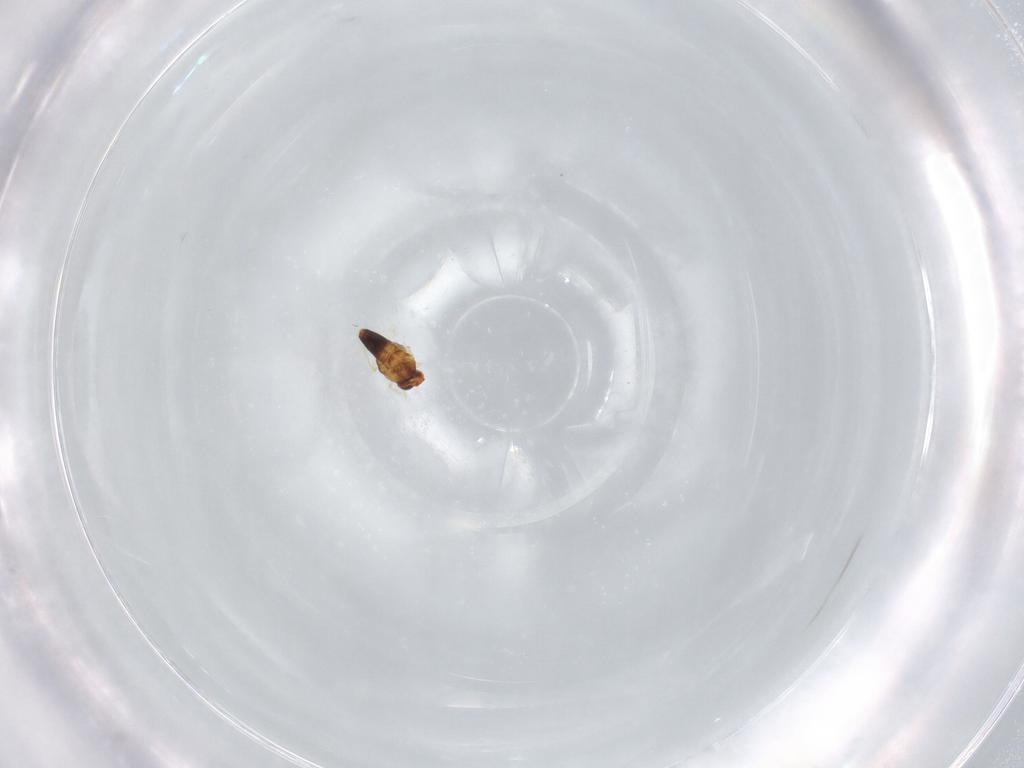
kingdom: Animalia
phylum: Arthropoda
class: Insecta
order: Hymenoptera
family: Aphelinidae
